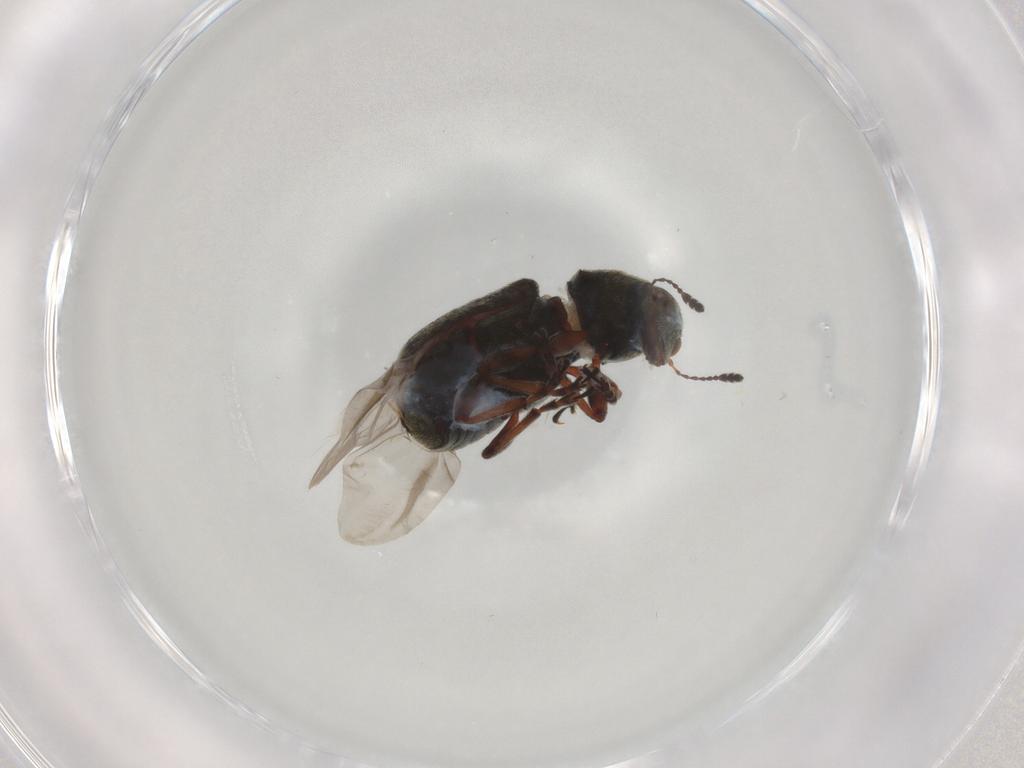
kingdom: Animalia
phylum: Arthropoda
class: Insecta
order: Coleoptera
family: Anthribidae
